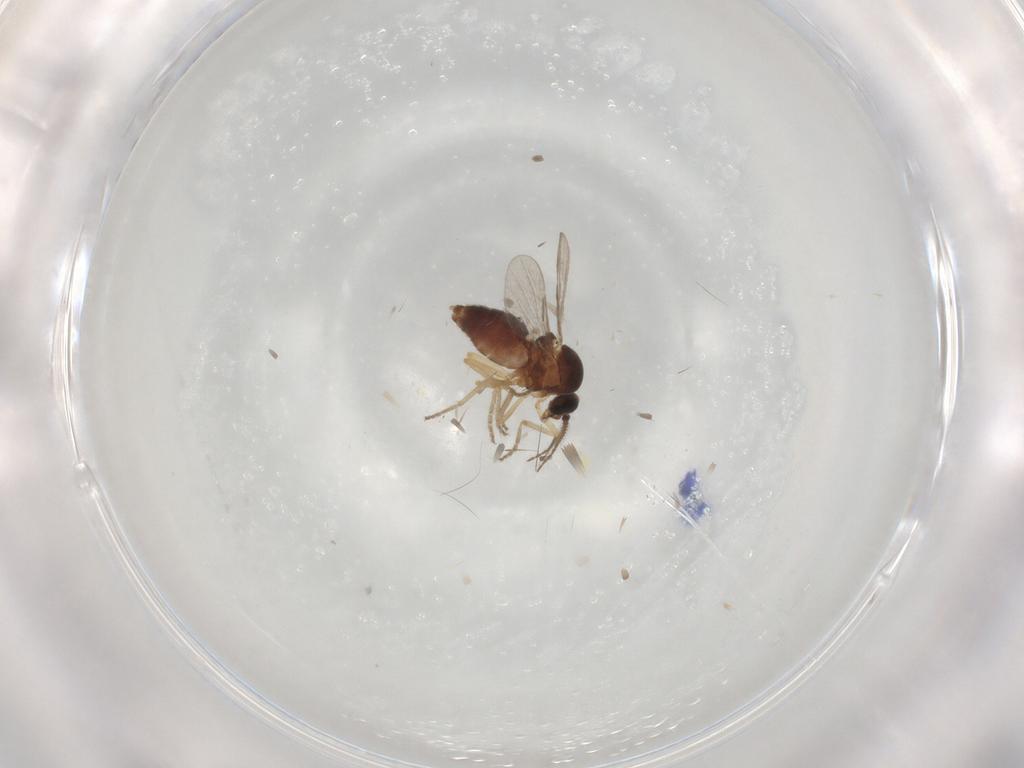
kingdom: Animalia
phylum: Arthropoda
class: Insecta
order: Diptera
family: Ceratopogonidae
